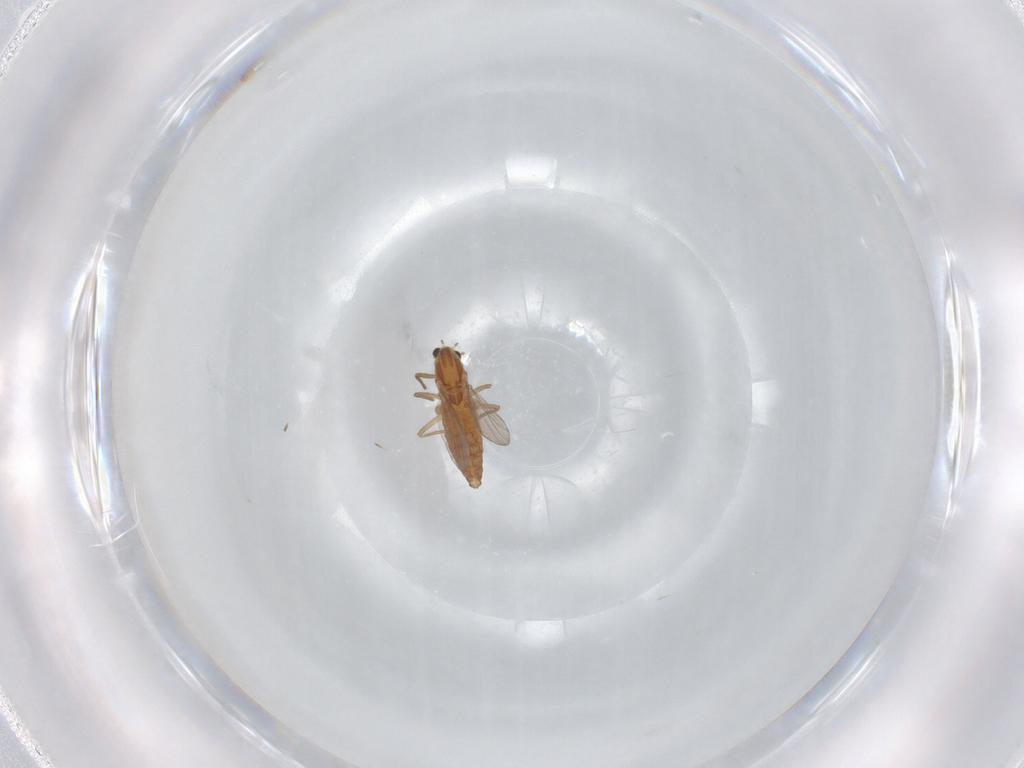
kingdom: Animalia
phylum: Arthropoda
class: Insecta
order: Diptera
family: Chironomidae
